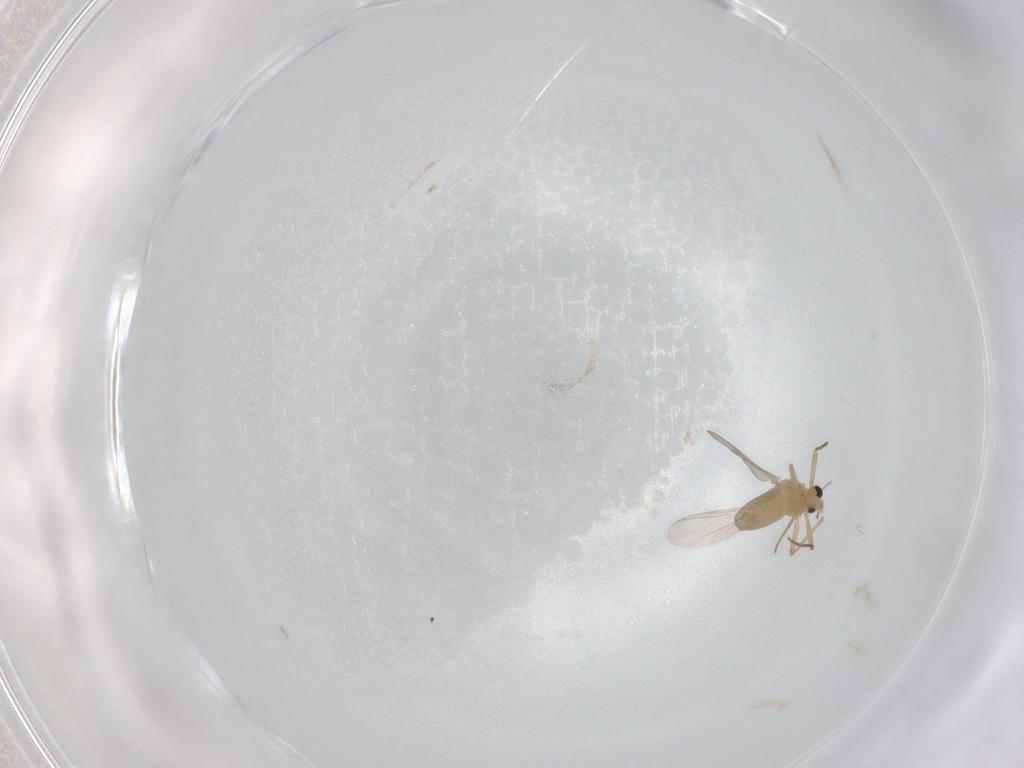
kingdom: Animalia
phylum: Arthropoda
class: Insecta
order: Diptera
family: Chironomidae
